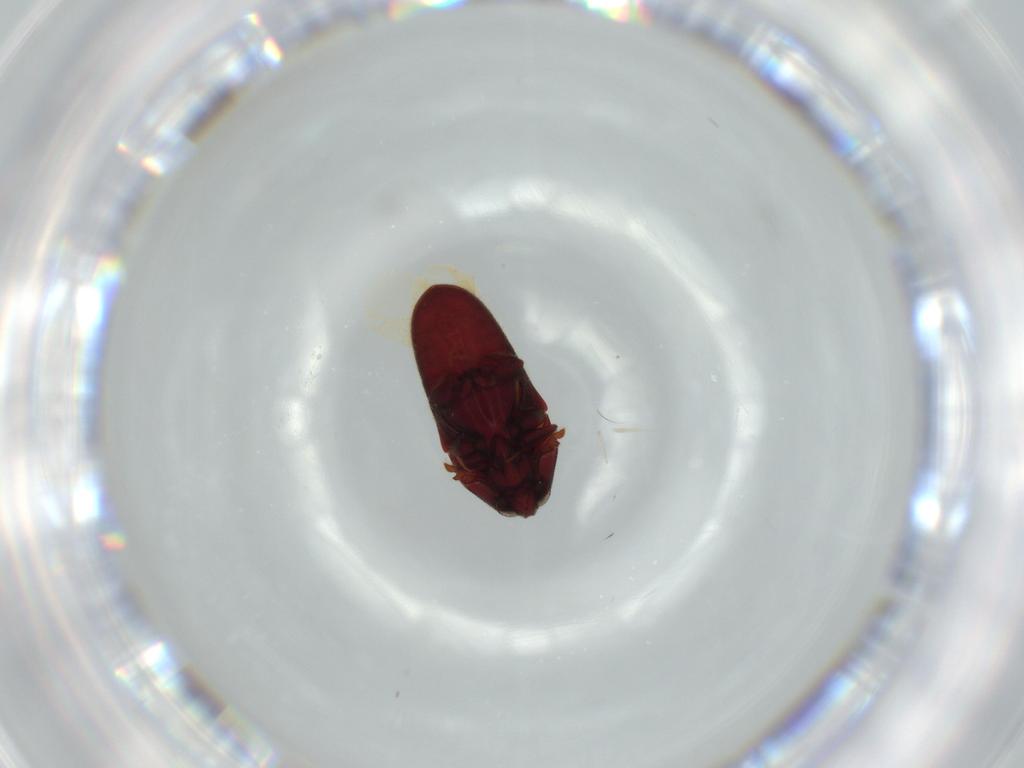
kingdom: Animalia
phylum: Arthropoda
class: Insecta
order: Coleoptera
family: Throscidae
